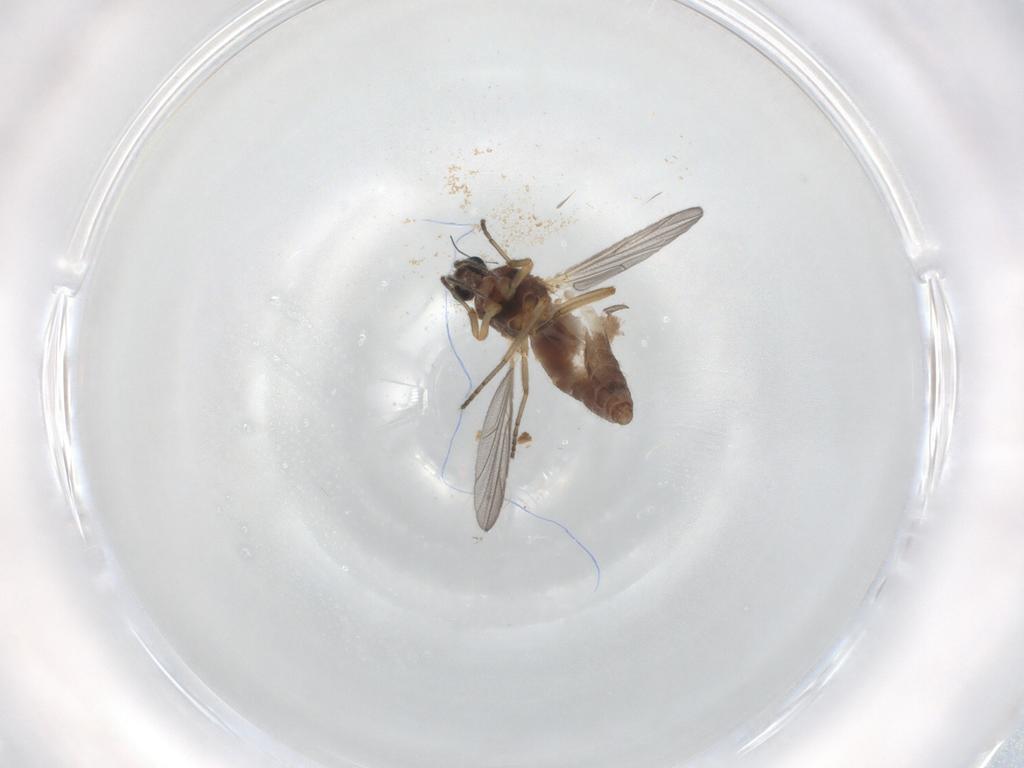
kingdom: Animalia
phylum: Arthropoda
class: Insecta
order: Diptera
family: Ceratopogonidae
